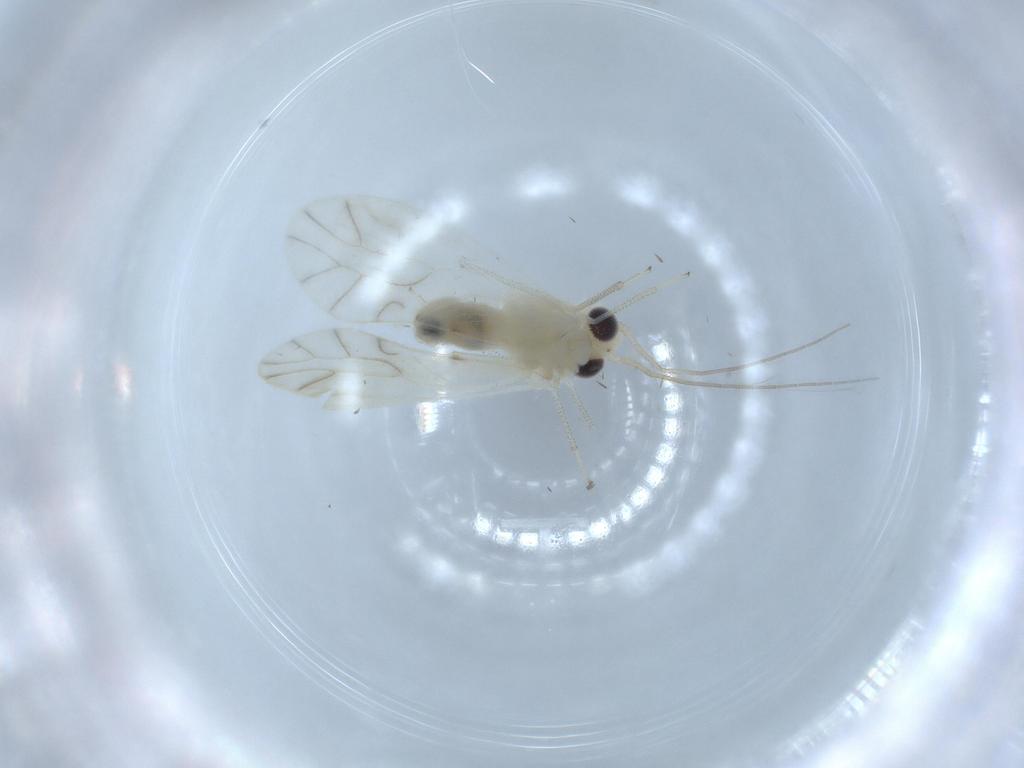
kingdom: Animalia
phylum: Arthropoda
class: Insecta
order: Psocodea
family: Caeciliusidae
